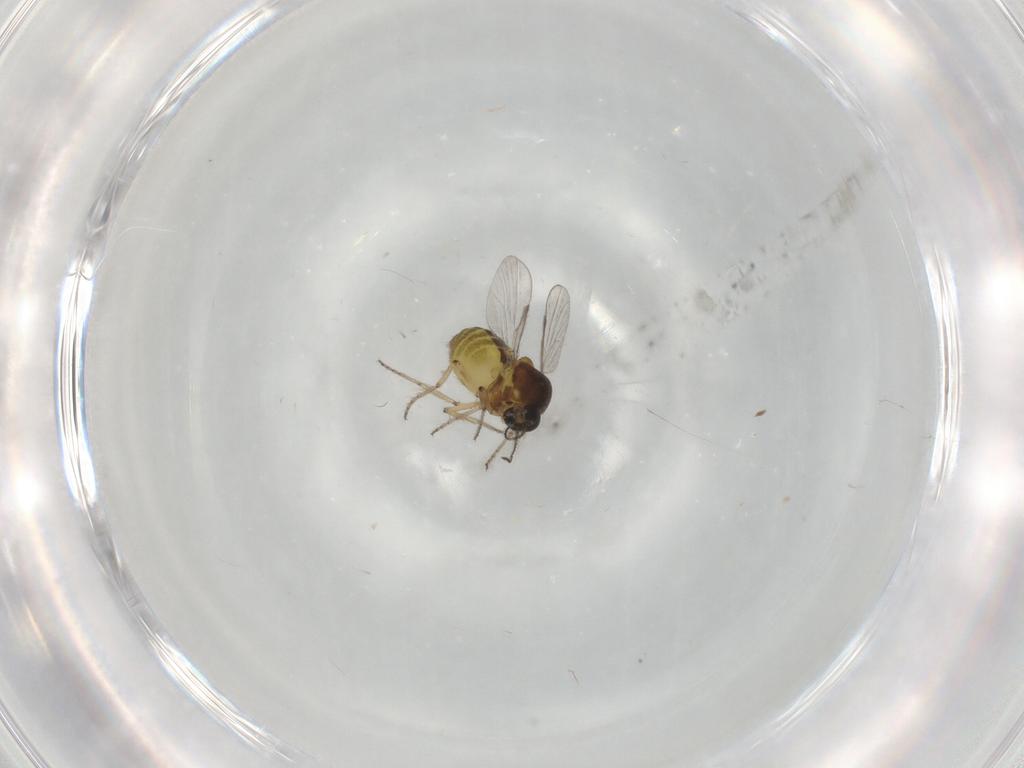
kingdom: Animalia
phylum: Arthropoda
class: Insecta
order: Diptera
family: Ceratopogonidae
